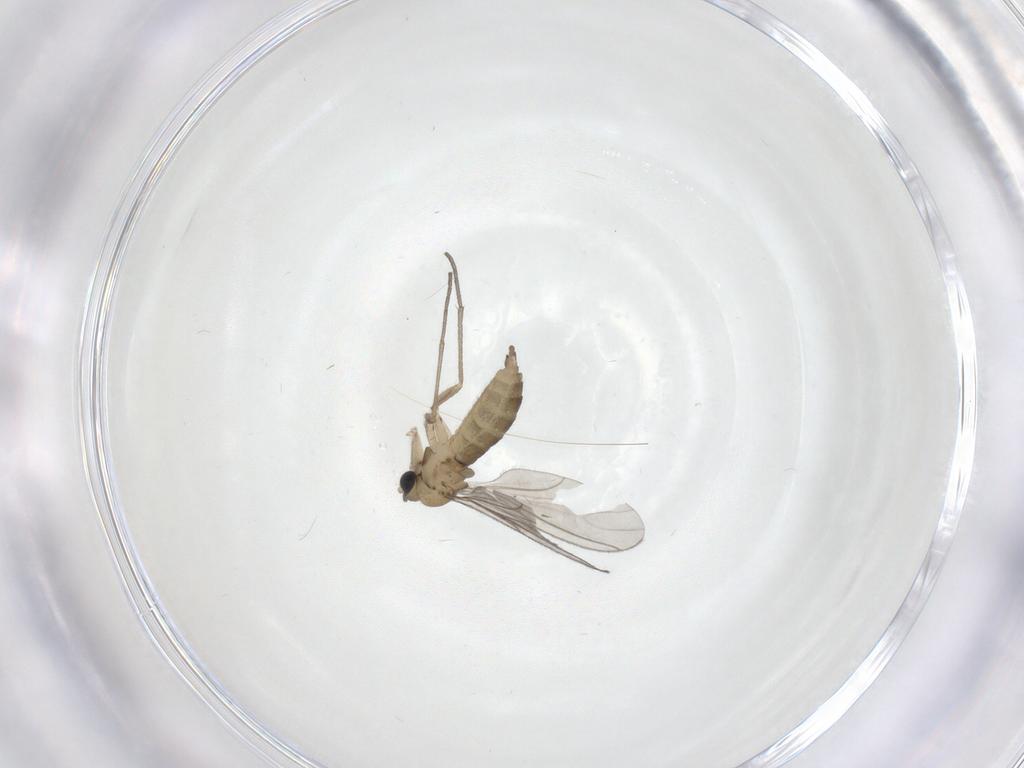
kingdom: Animalia
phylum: Arthropoda
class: Insecta
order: Diptera
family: Sciaridae
